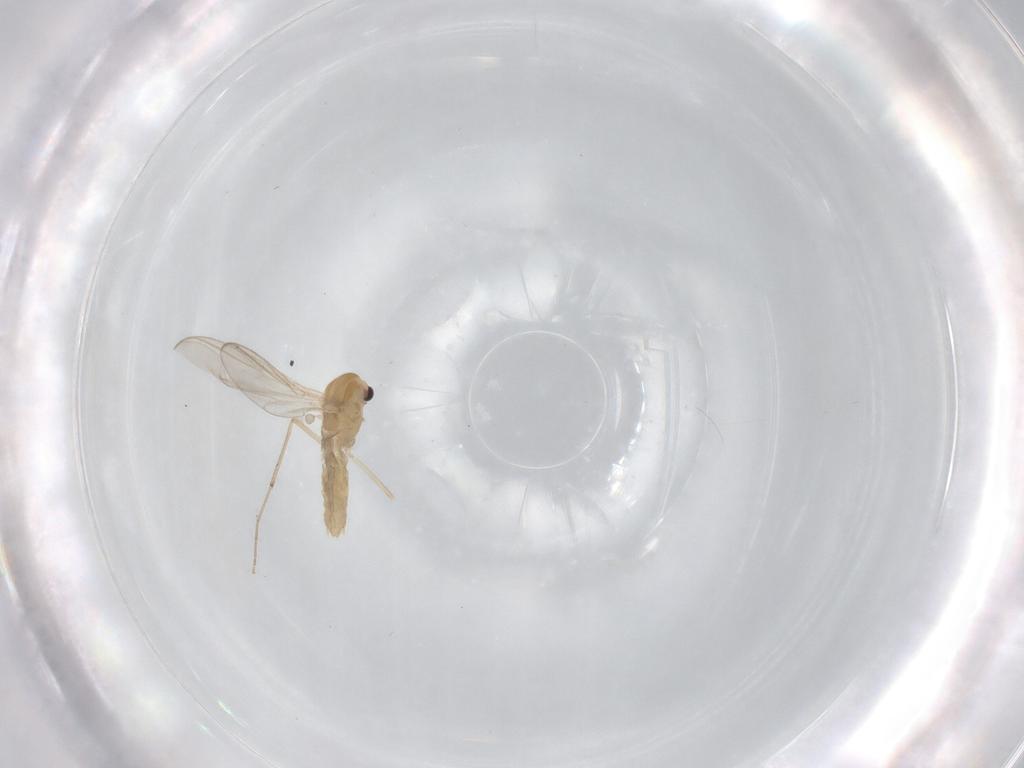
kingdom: Animalia
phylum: Arthropoda
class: Insecta
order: Diptera
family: Chironomidae
